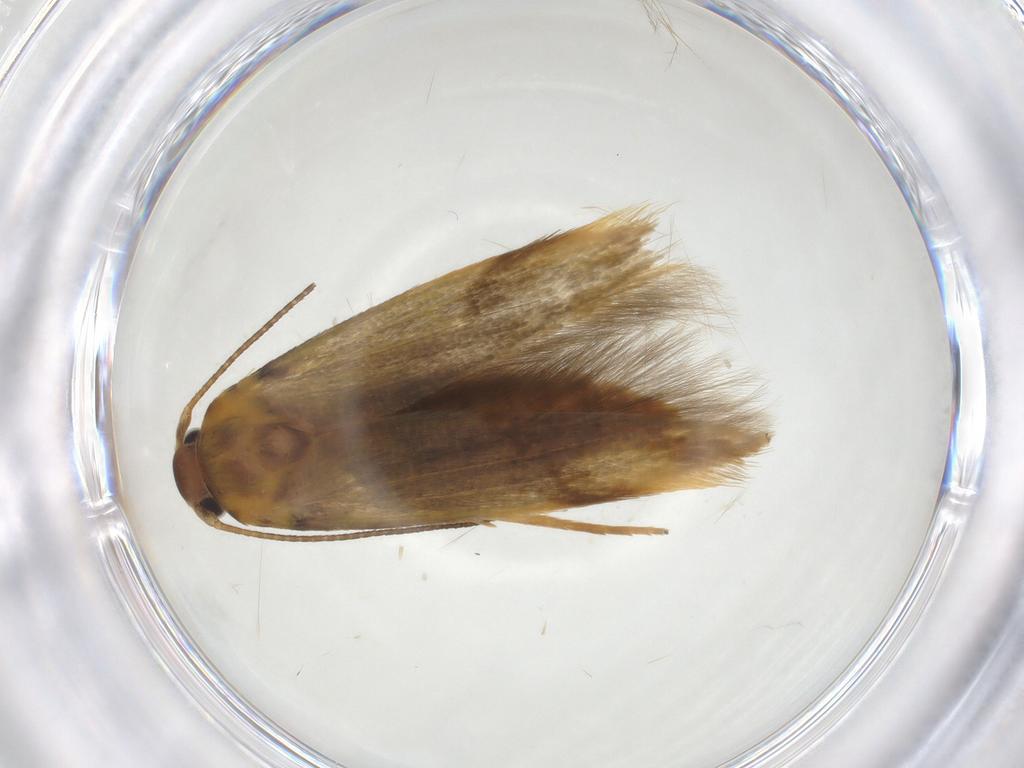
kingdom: Animalia
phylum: Arthropoda
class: Insecta
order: Lepidoptera
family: Stathmopodidae
